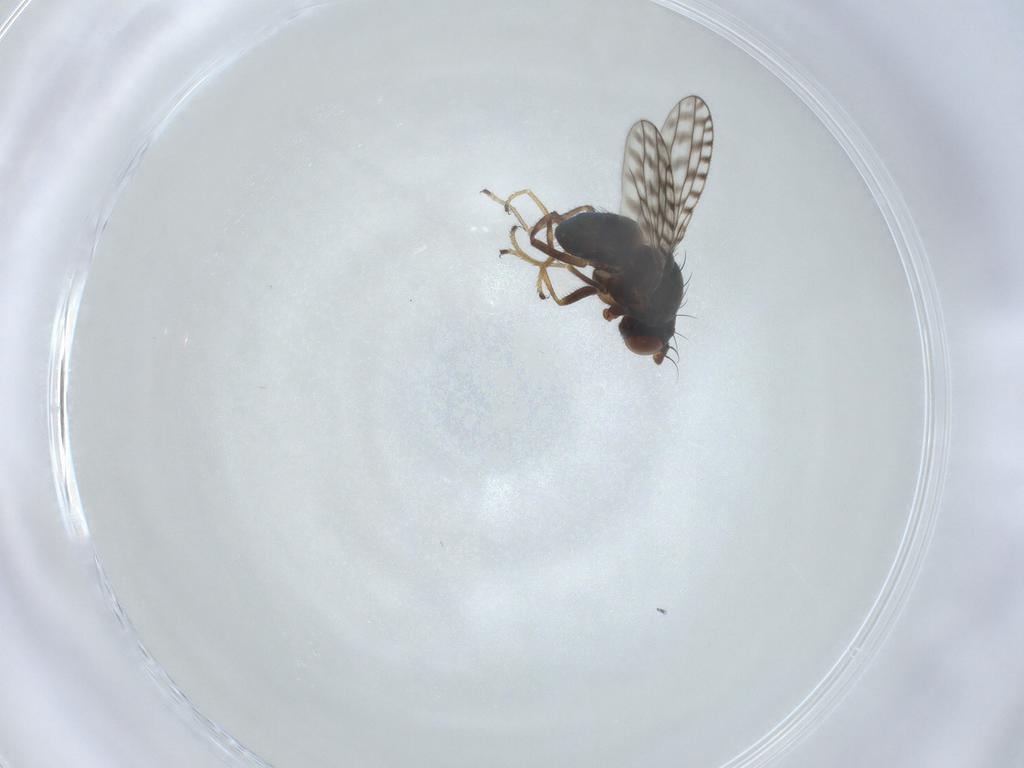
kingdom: Animalia
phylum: Arthropoda
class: Insecta
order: Diptera
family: Ephydridae
